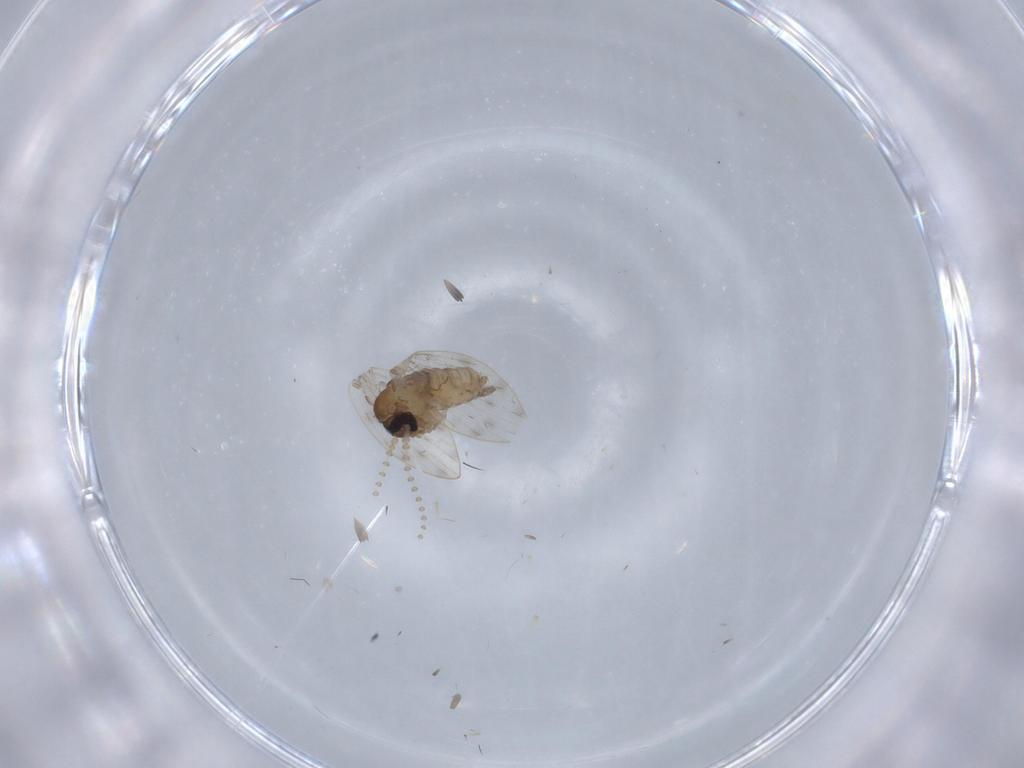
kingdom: Animalia
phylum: Arthropoda
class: Insecta
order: Diptera
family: Psychodidae
